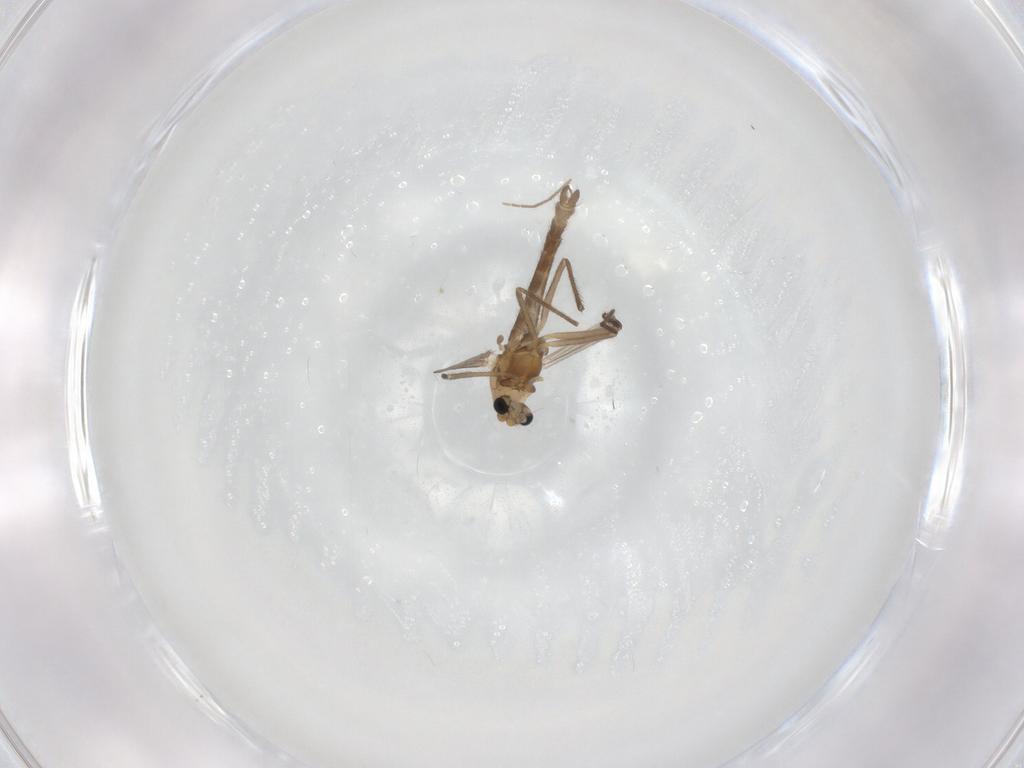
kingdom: Animalia
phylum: Arthropoda
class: Insecta
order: Diptera
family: Chironomidae
